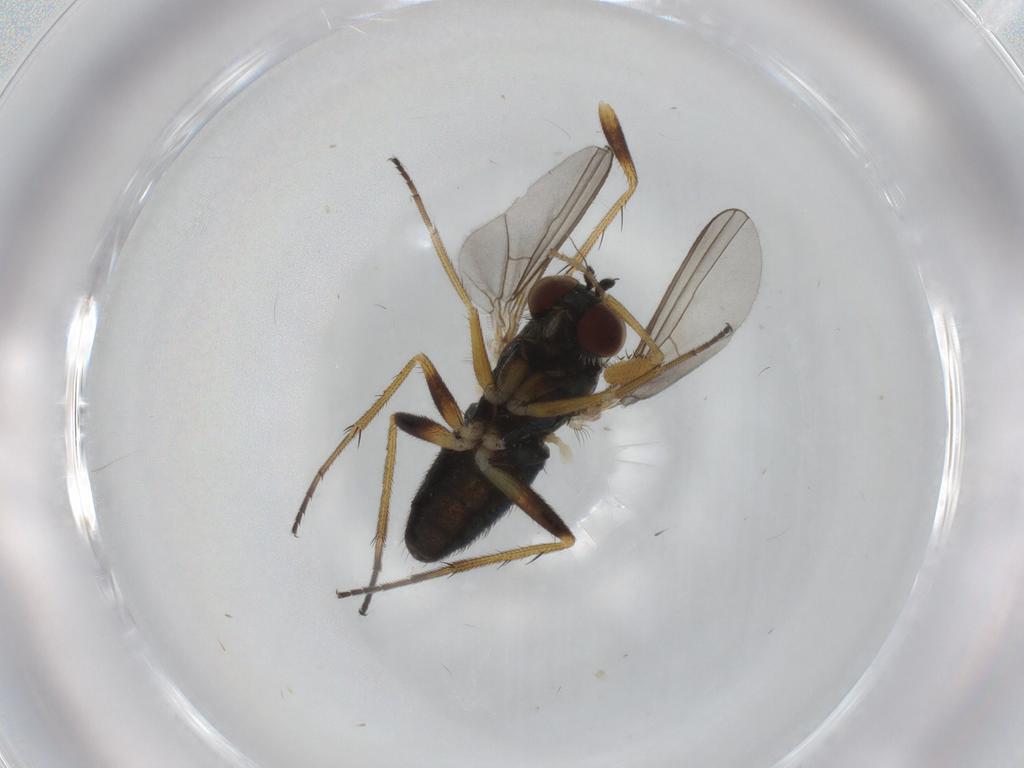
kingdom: Animalia
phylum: Arthropoda
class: Insecta
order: Diptera
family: Drosophilidae
